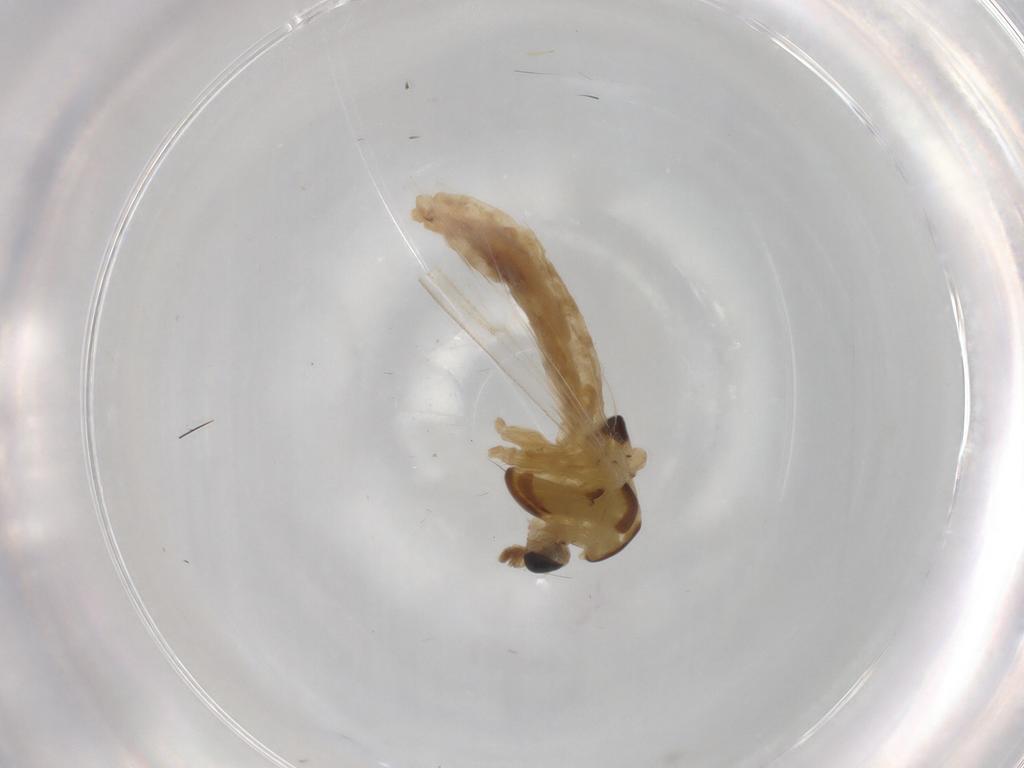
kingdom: Animalia
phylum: Arthropoda
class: Insecta
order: Diptera
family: Chironomidae
